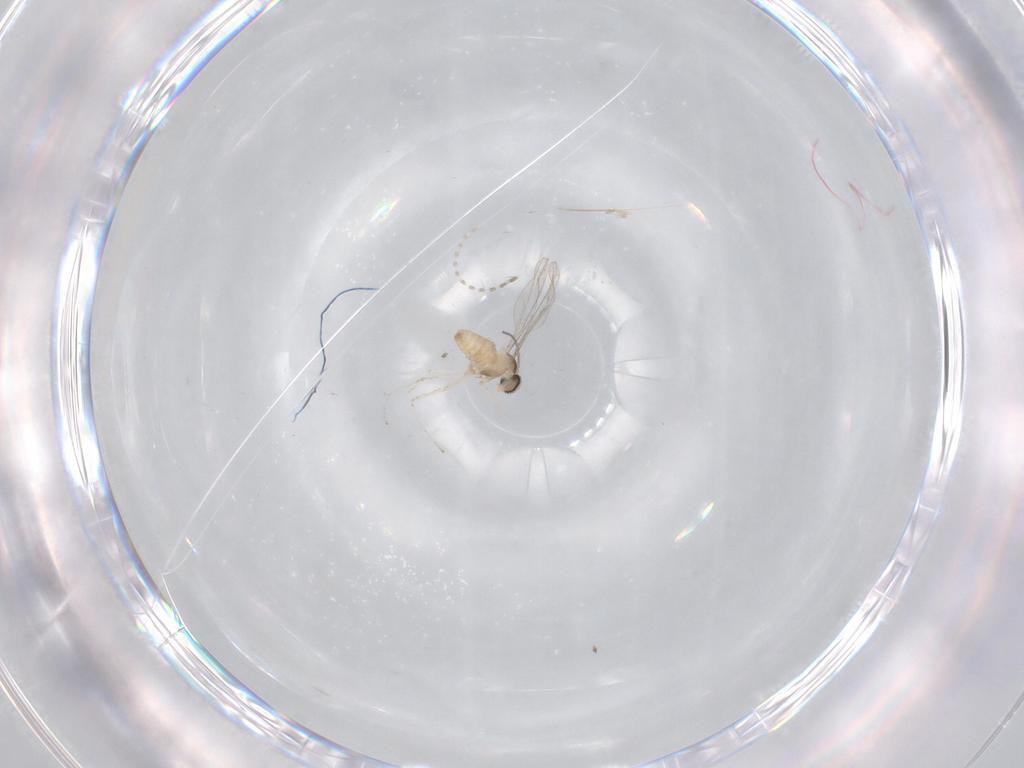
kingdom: Animalia
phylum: Arthropoda
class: Insecta
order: Diptera
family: Cecidomyiidae
